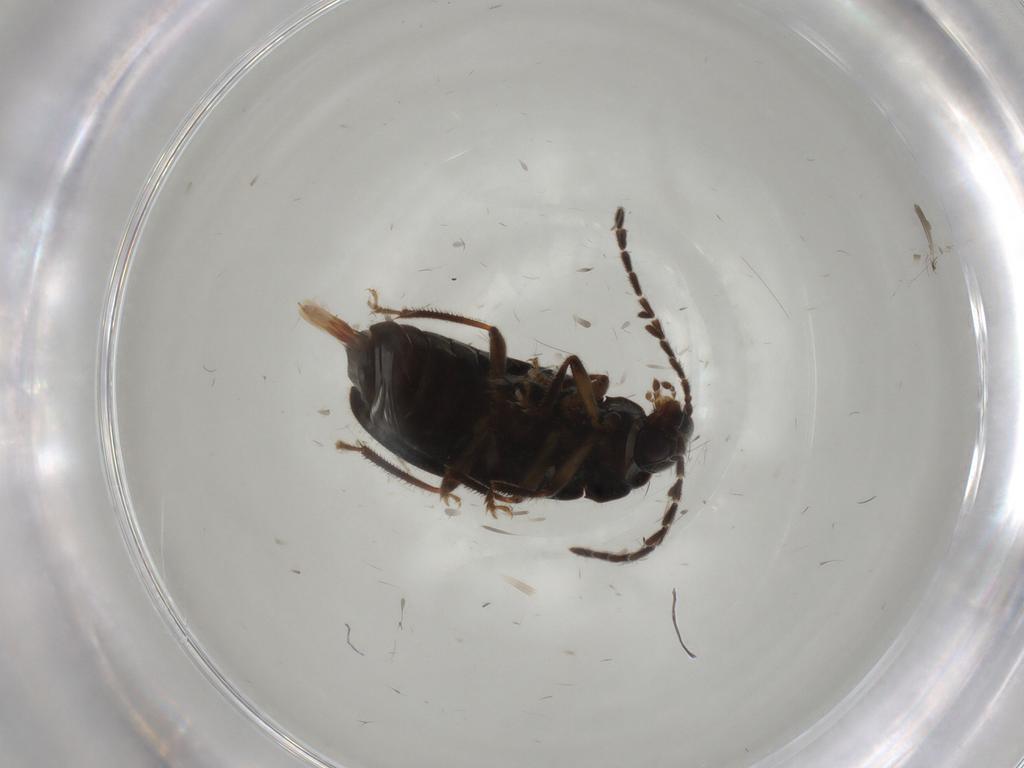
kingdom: Animalia
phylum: Arthropoda
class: Insecta
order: Coleoptera
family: Ptilodactylidae
